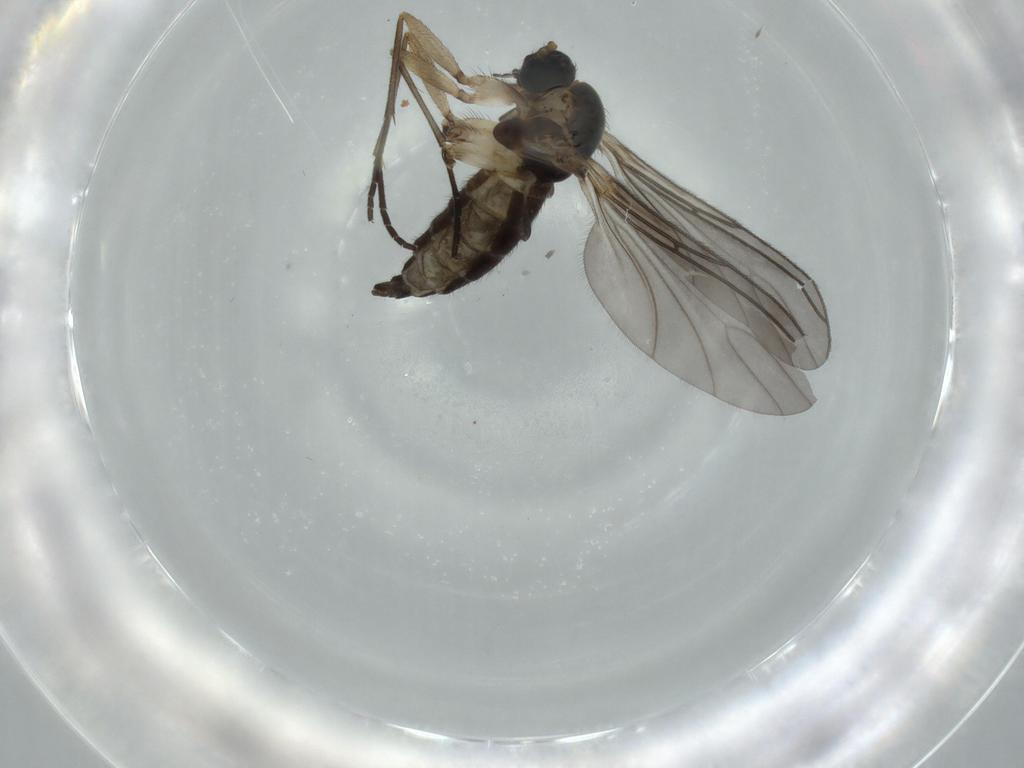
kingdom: Animalia
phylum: Arthropoda
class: Insecta
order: Diptera
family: Sciaridae
